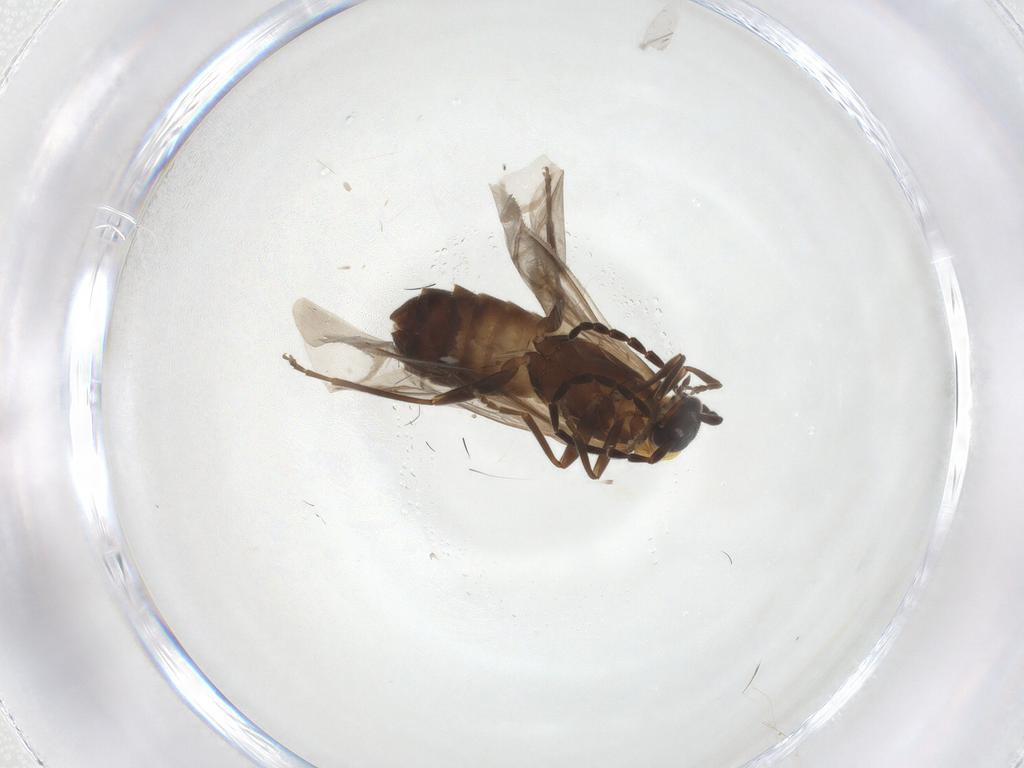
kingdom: Animalia
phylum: Arthropoda
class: Insecta
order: Coleoptera
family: Cantharidae
